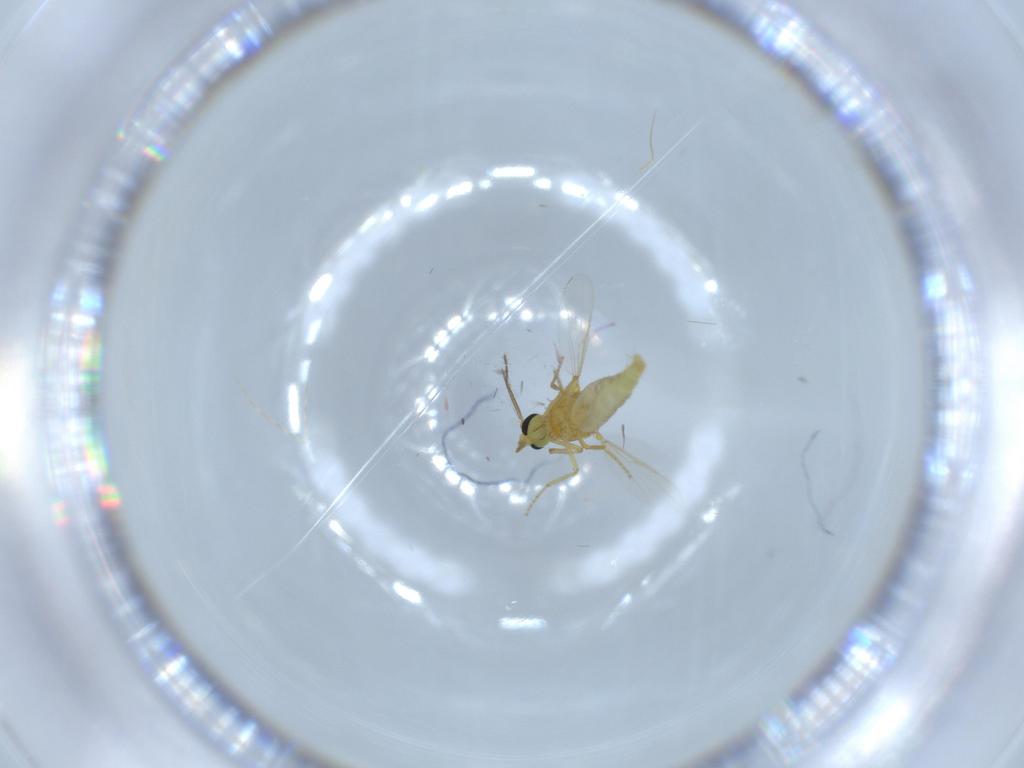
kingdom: Animalia
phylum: Arthropoda
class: Insecta
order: Diptera
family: Ceratopogonidae
